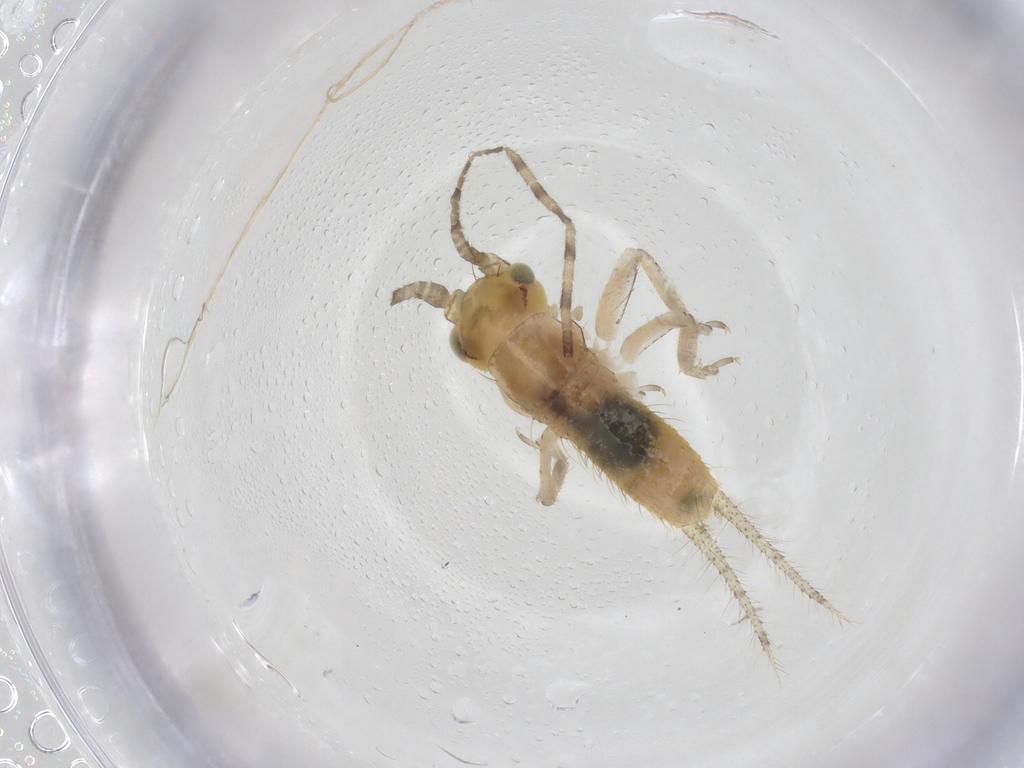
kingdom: Animalia
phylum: Arthropoda
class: Insecta
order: Orthoptera
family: Gryllidae
